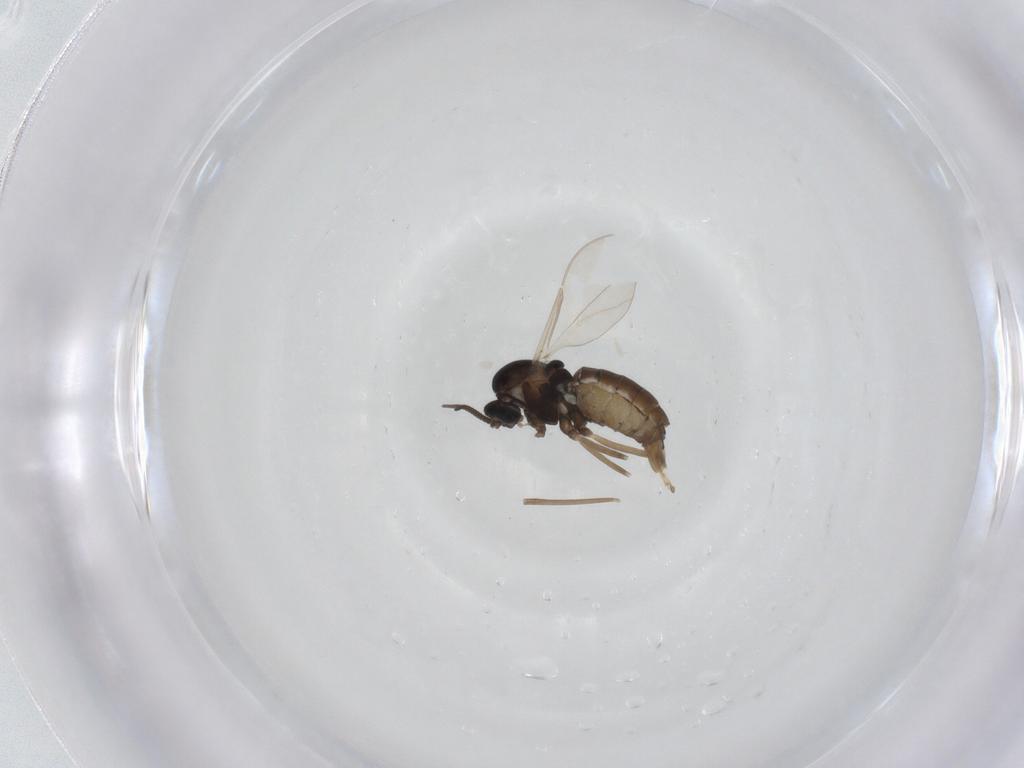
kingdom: Animalia
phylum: Arthropoda
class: Insecta
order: Diptera
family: Cecidomyiidae
